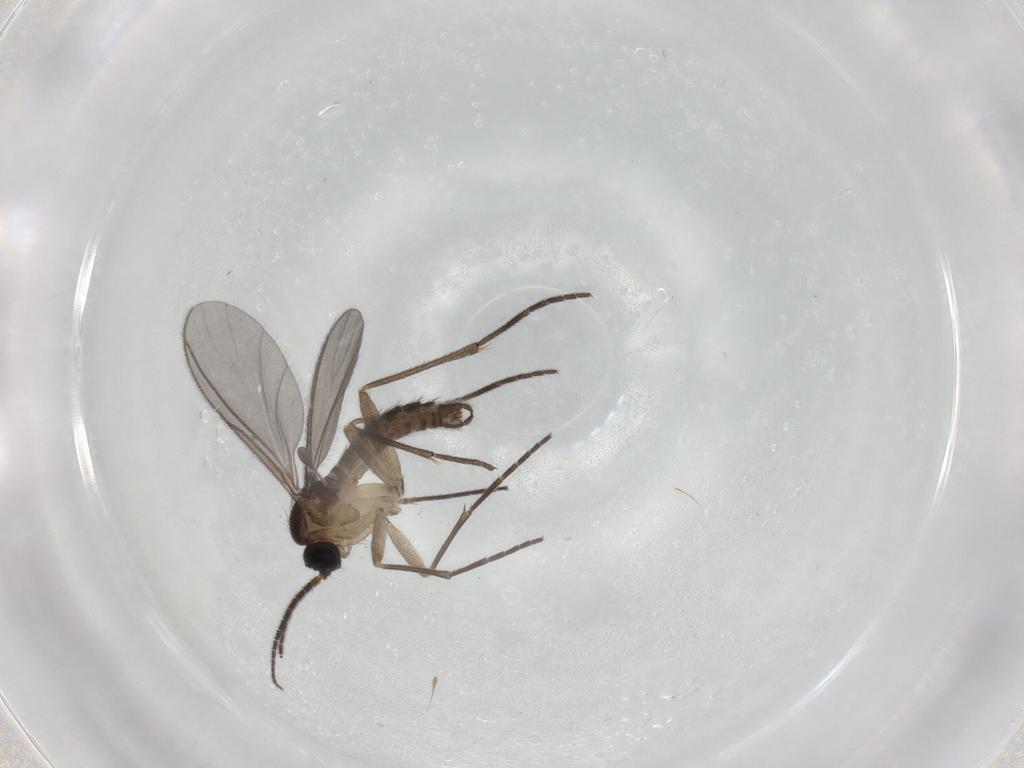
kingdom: Animalia
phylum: Arthropoda
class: Insecta
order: Diptera
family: Sciaridae
